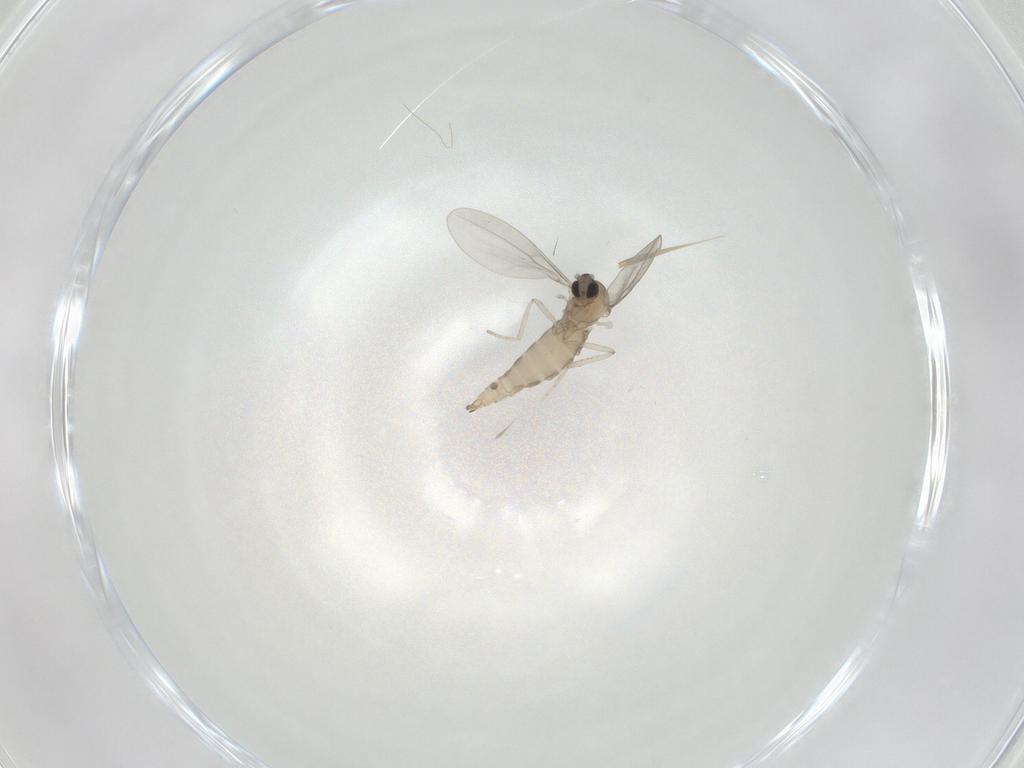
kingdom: Animalia
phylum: Arthropoda
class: Insecta
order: Diptera
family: Cecidomyiidae
